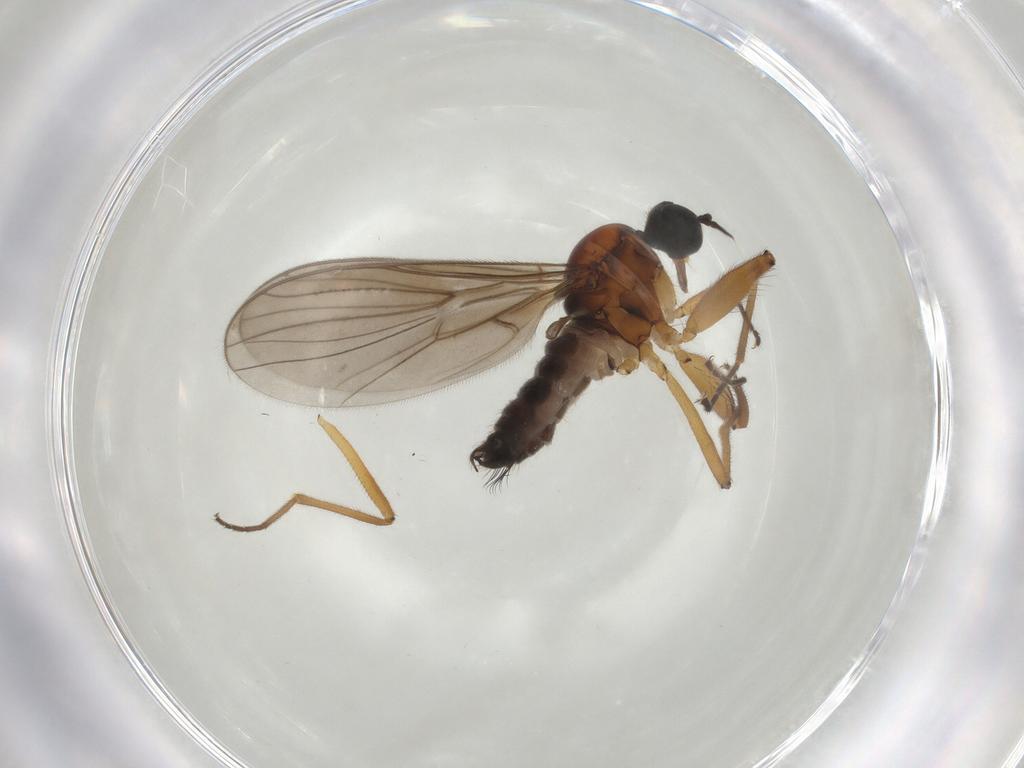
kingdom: Animalia
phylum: Arthropoda
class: Insecta
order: Diptera
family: Hybotidae
